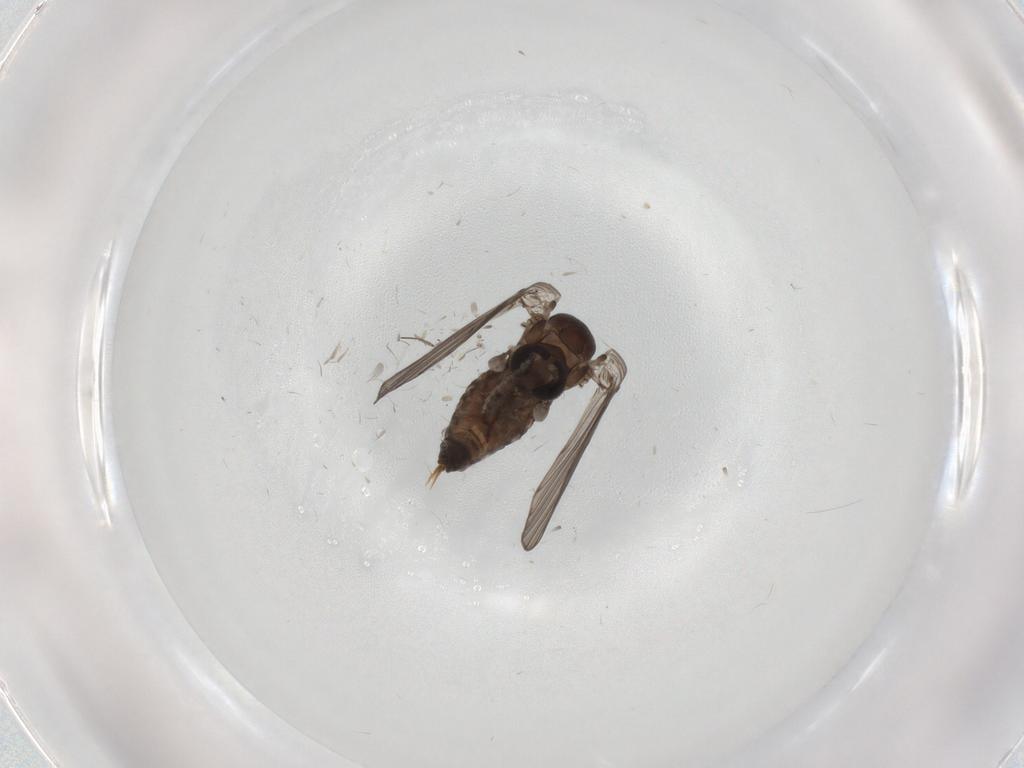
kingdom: Animalia
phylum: Arthropoda
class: Insecta
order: Diptera
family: Psychodidae
